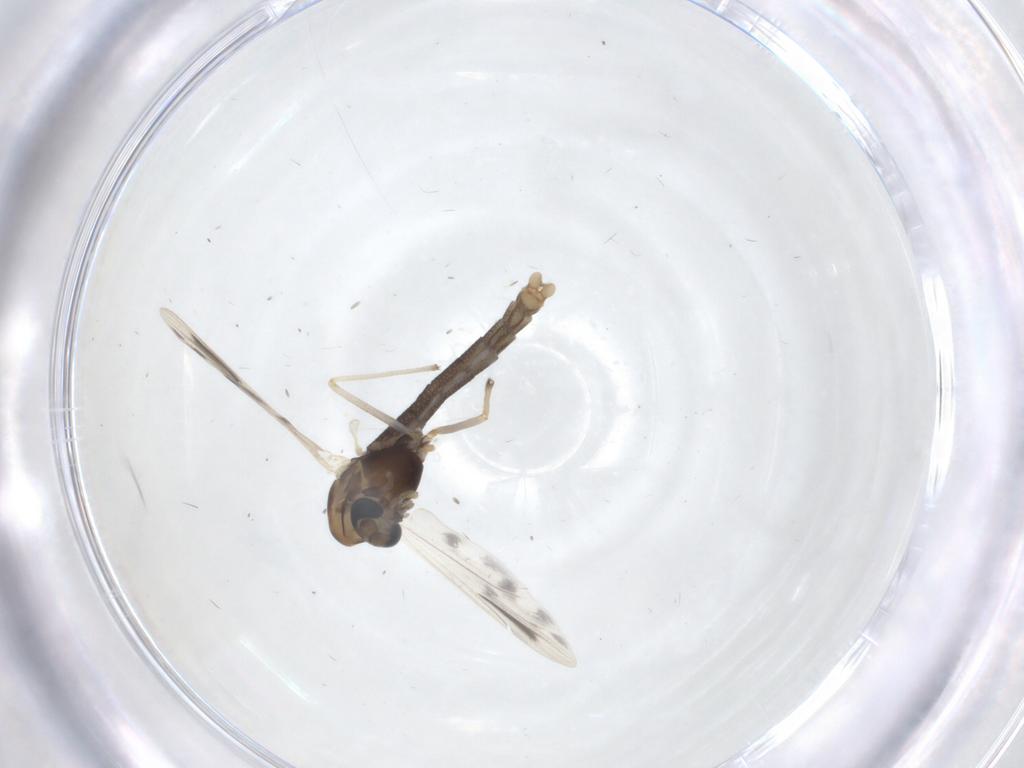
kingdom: Animalia
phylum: Arthropoda
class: Insecta
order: Diptera
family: Chironomidae
